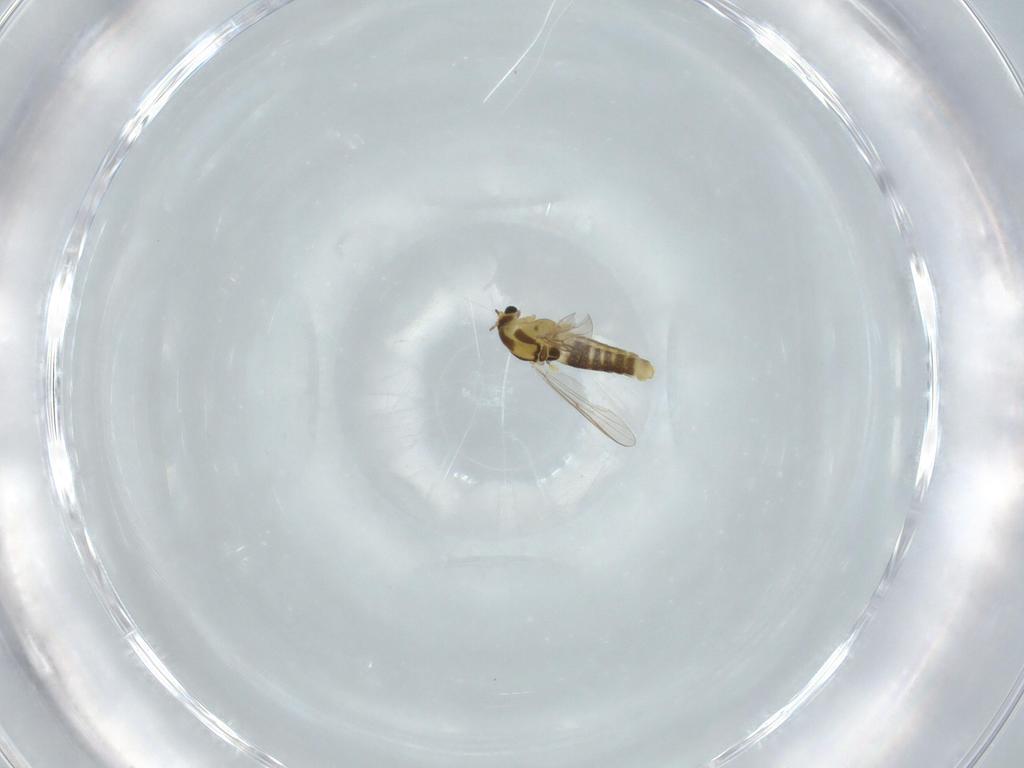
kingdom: Animalia
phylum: Arthropoda
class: Insecta
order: Diptera
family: Chironomidae
